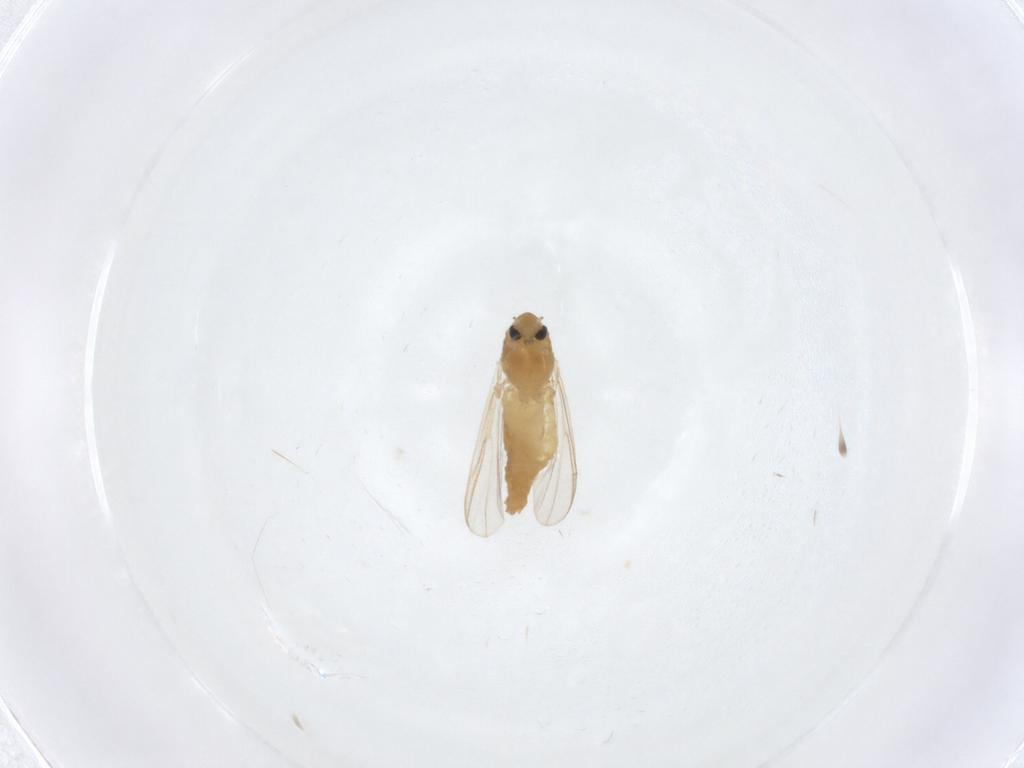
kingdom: Animalia
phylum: Arthropoda
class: Insecta
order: Diptera
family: Chironomidae
